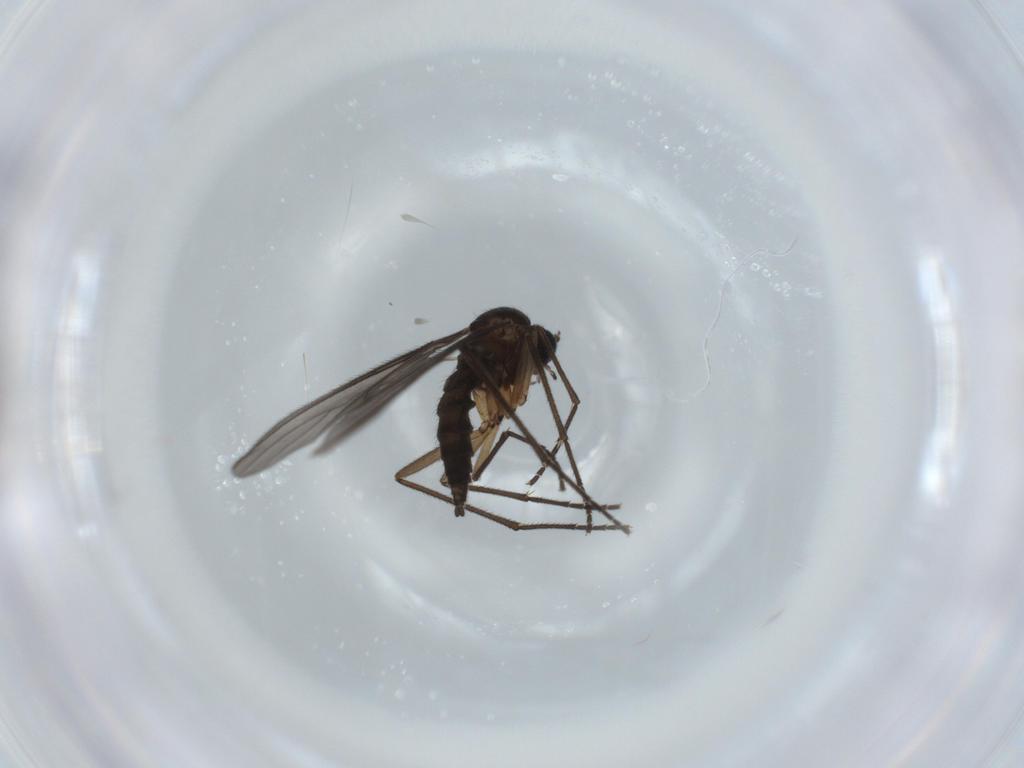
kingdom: Animalia
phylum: Arthropoda
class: Insecta
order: Diptera
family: Sciaridae
